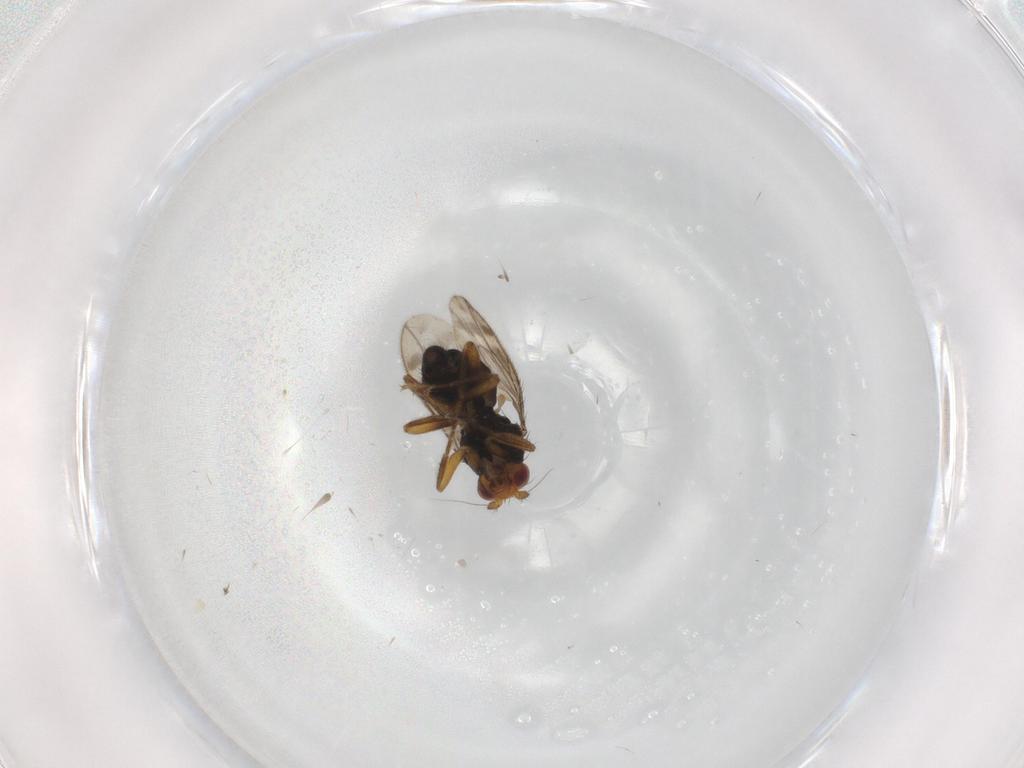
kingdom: Animalia
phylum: Arthropoda
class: Insecta
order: Diptera
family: Sphaeroceridae
